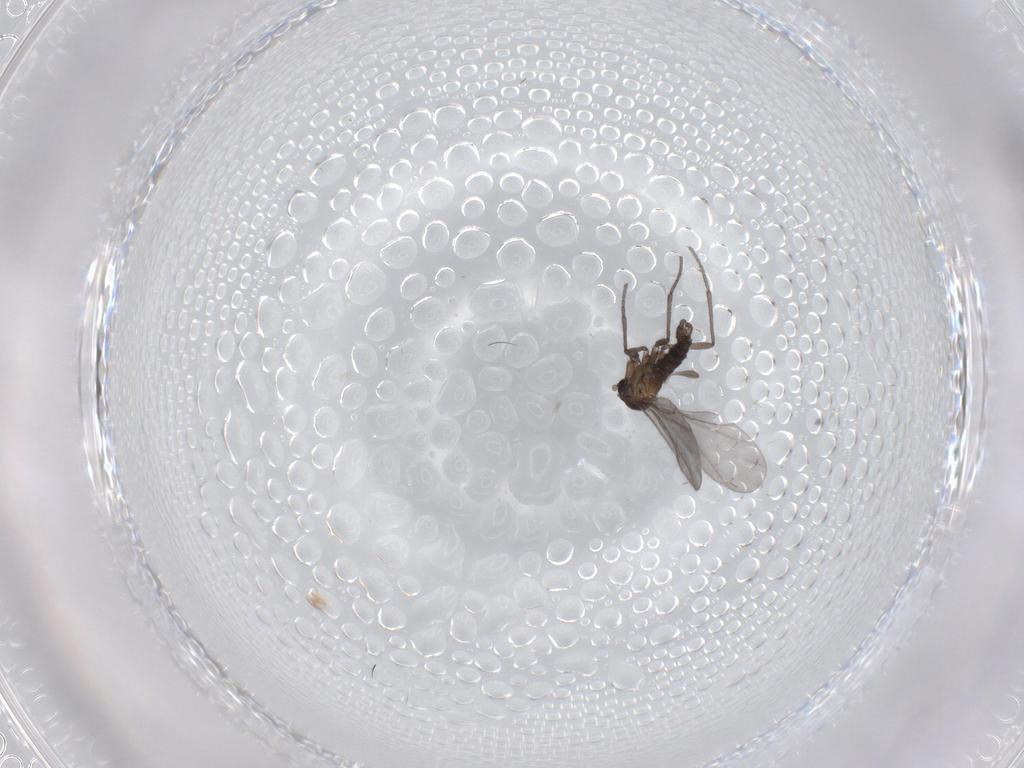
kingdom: Animalia
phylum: Arthropoda
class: Insecta
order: Diptera
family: Sciaridae
